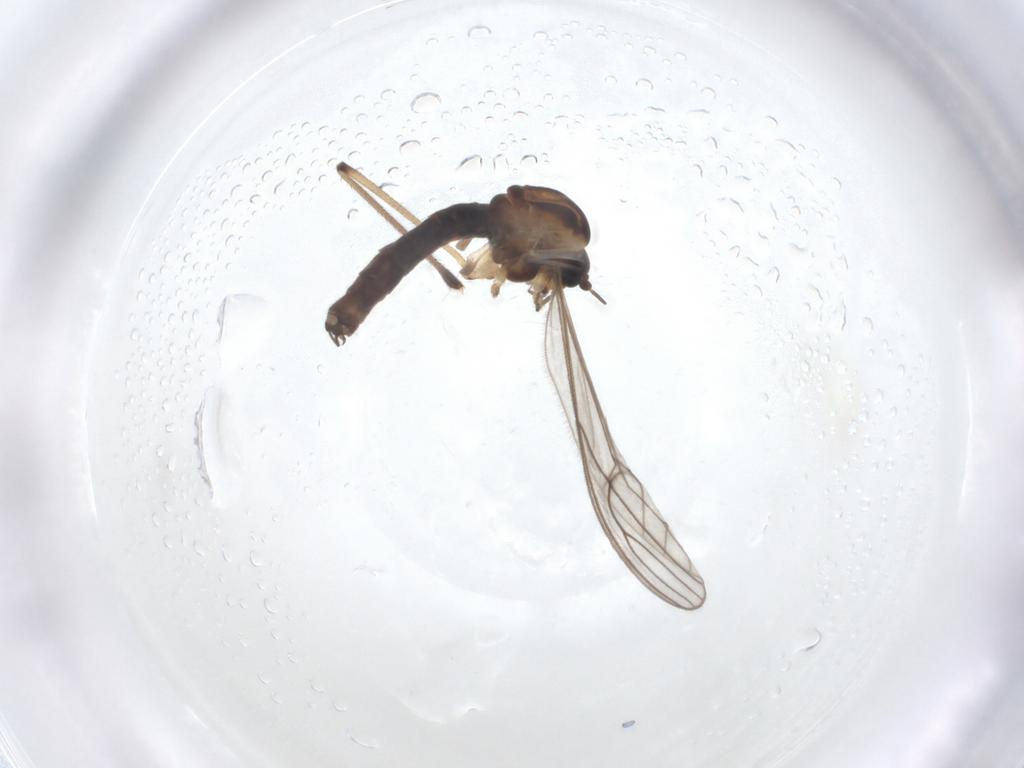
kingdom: Animalia
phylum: Arthropoda
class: Insecta
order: Diptera
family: Dixidae
